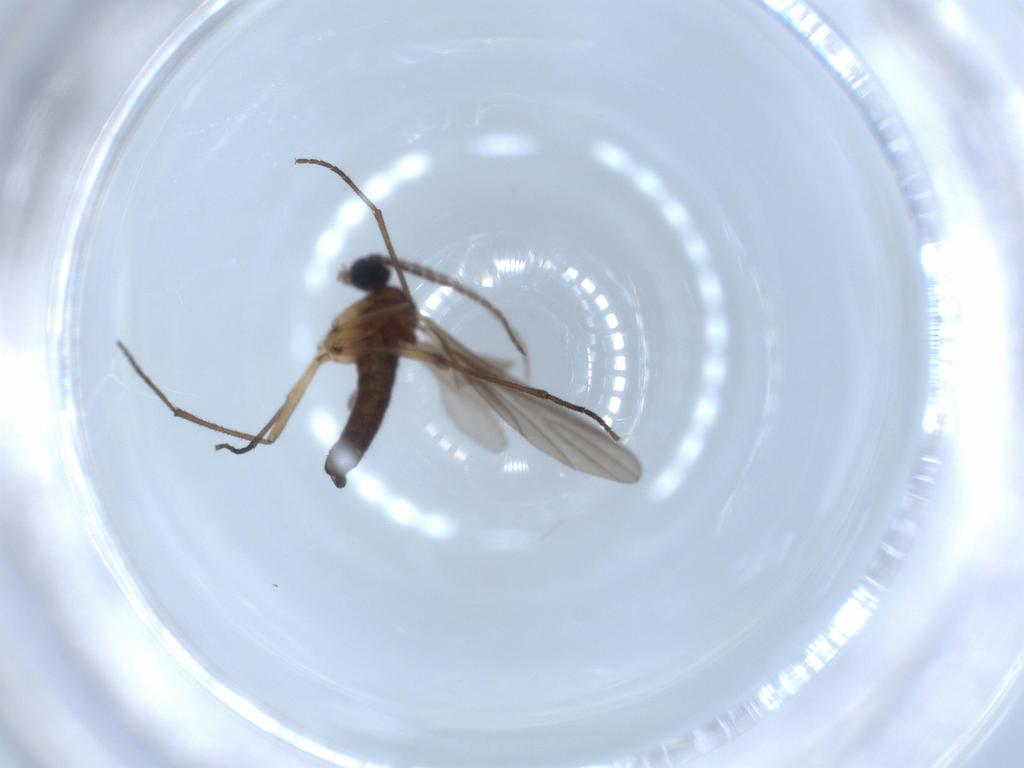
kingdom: Animalia
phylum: Arthropoda
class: Insecta
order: Diptera
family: Sciaridae
